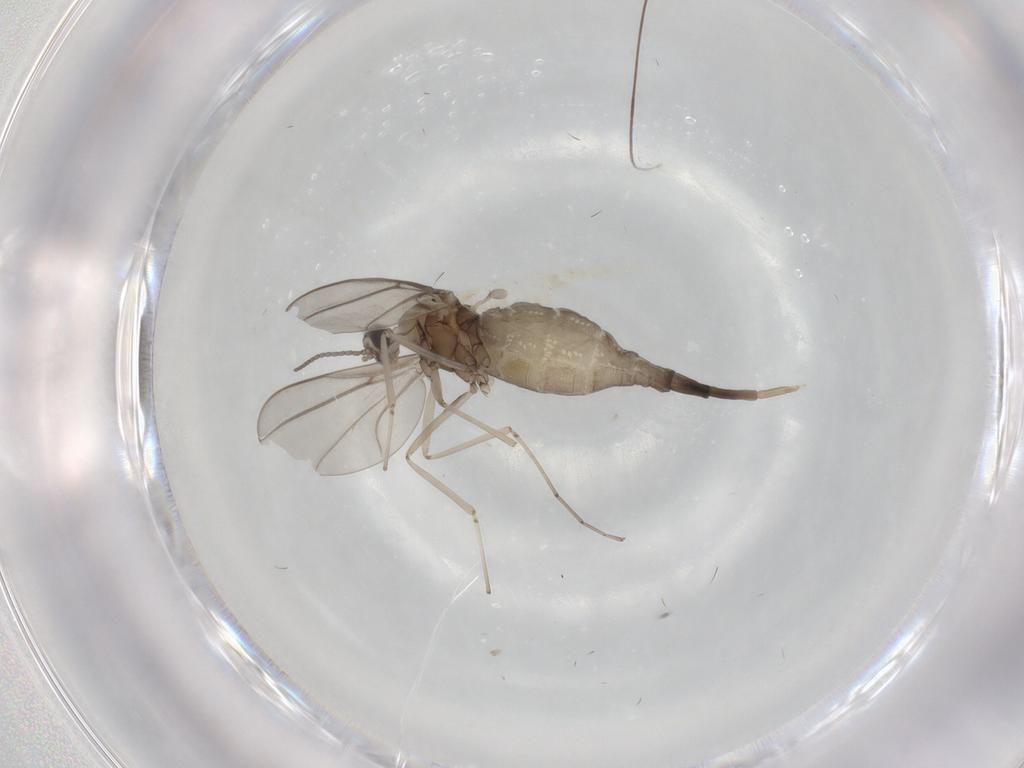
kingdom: Animalia
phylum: Arthropoda
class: Insecta
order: Diptera
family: Cecidomyiidae
